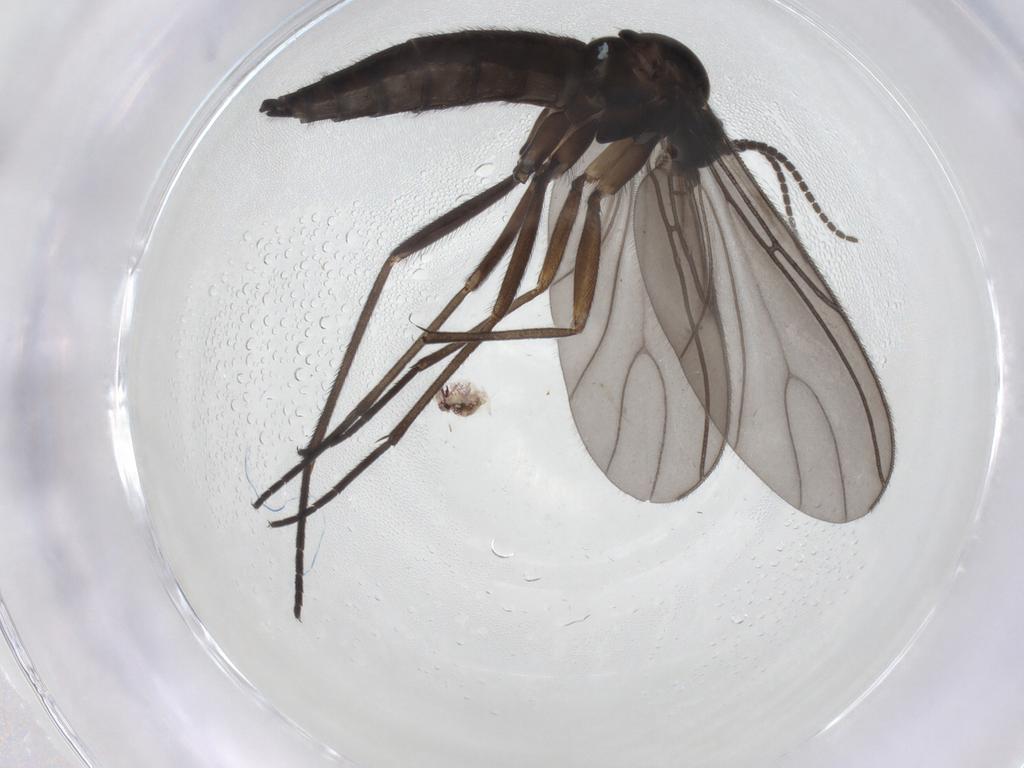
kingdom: Animalia
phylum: Arthropoda
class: Insecta
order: Diptera
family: Sciaridae
